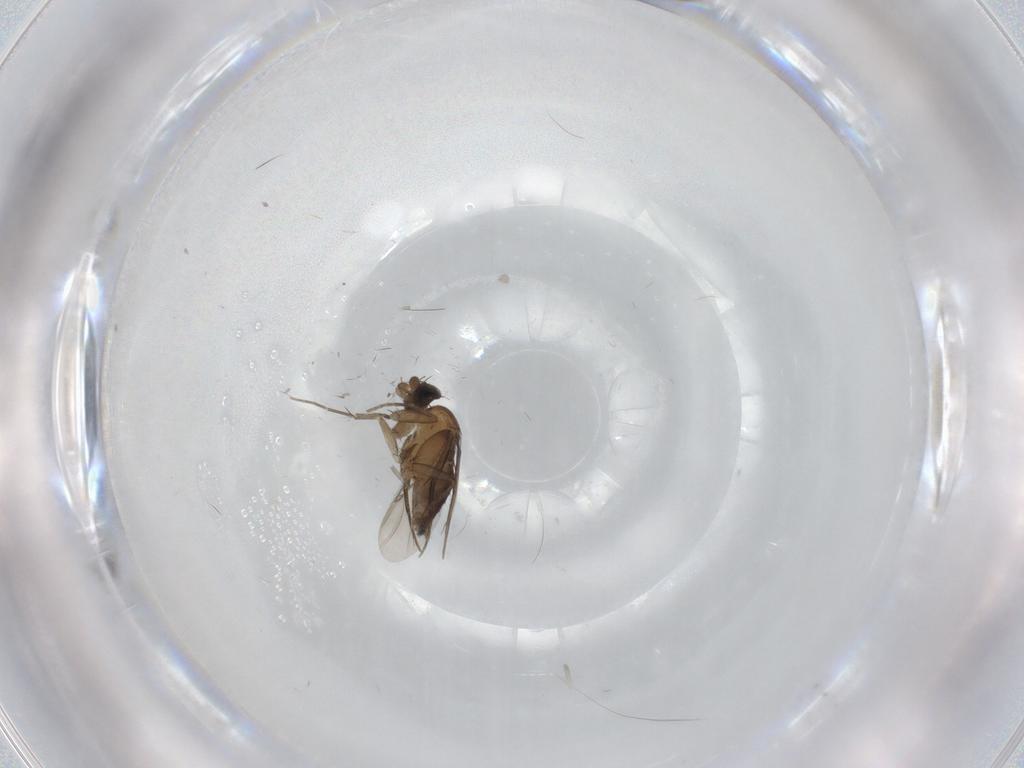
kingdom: Animalia
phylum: Arthropoda
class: Insecta
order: Diptera
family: Phoridae
